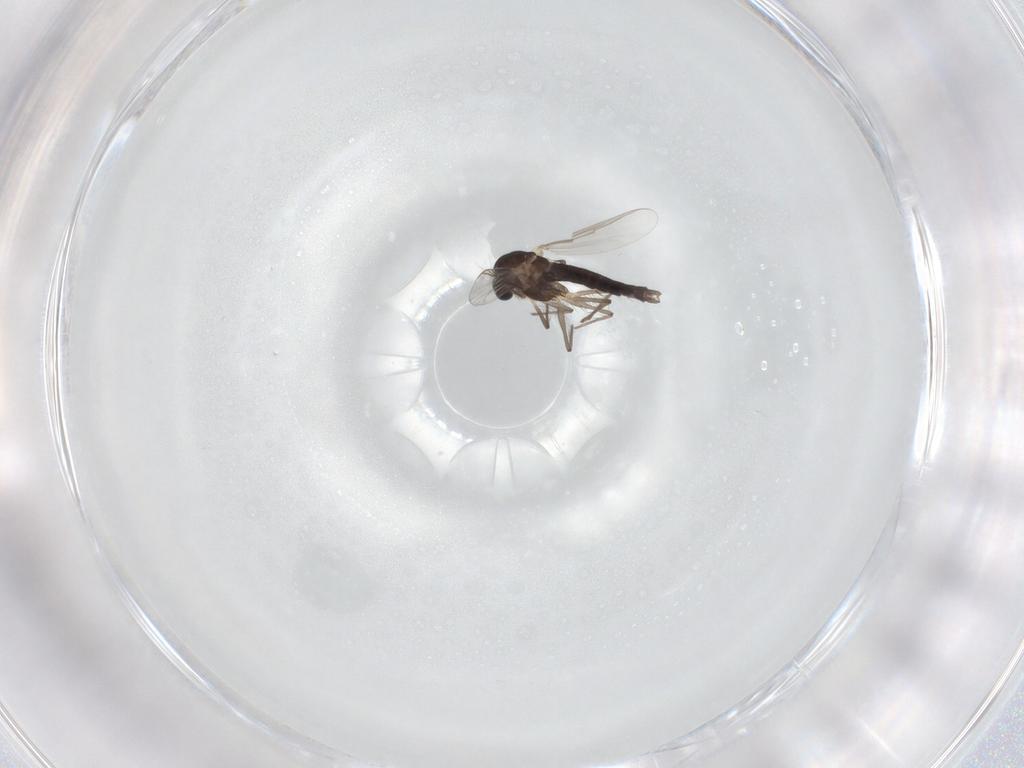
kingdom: Animalia
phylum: Arthropoda
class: Insecta
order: Diptera
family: Chironomidae
